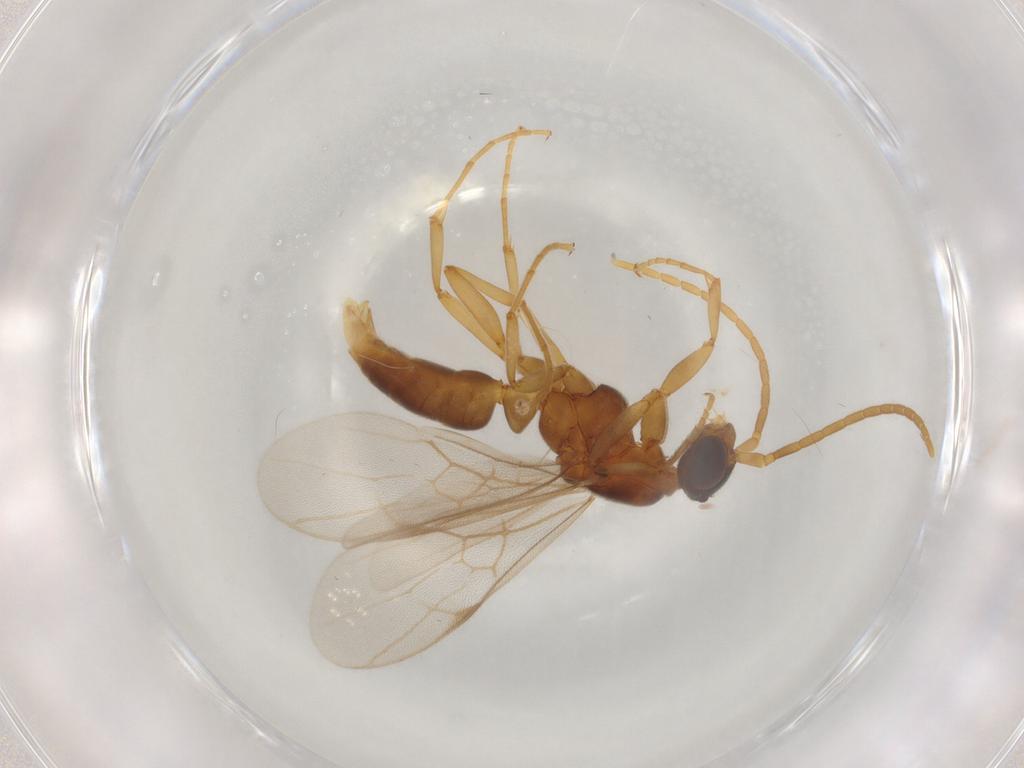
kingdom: Animalia
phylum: Arthropoda
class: Insecta
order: Hymenoptera
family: Formicidae
